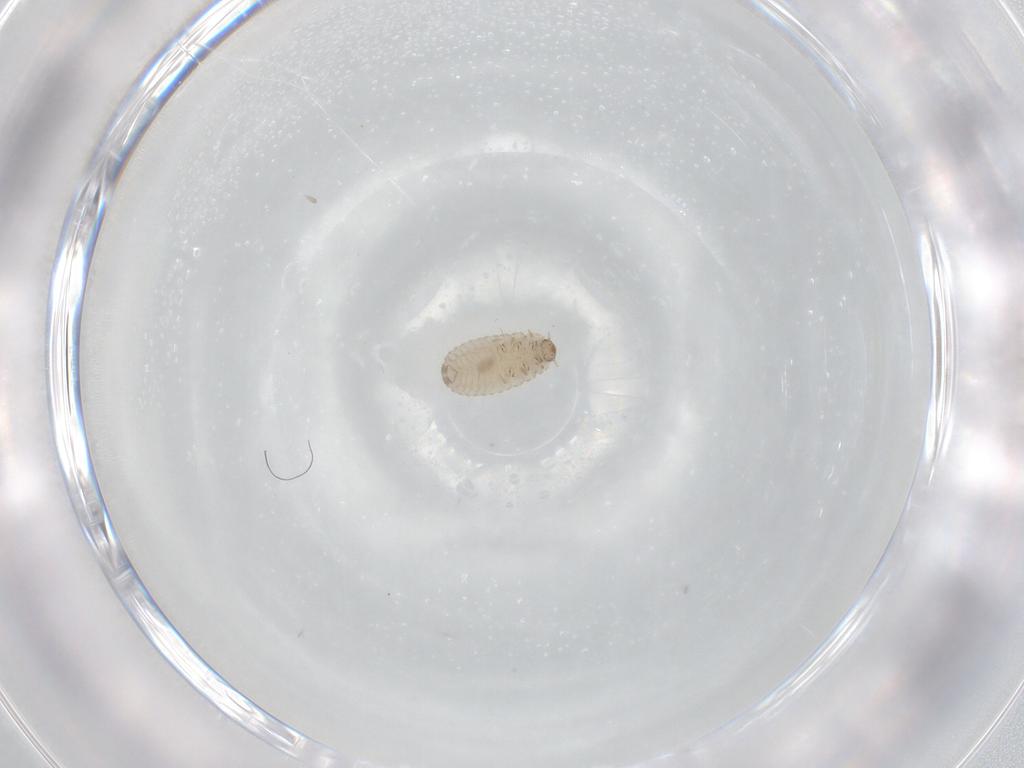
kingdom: Animalia
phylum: Arthropoda
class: Insecta
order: Coleoptera
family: Corylophidae
